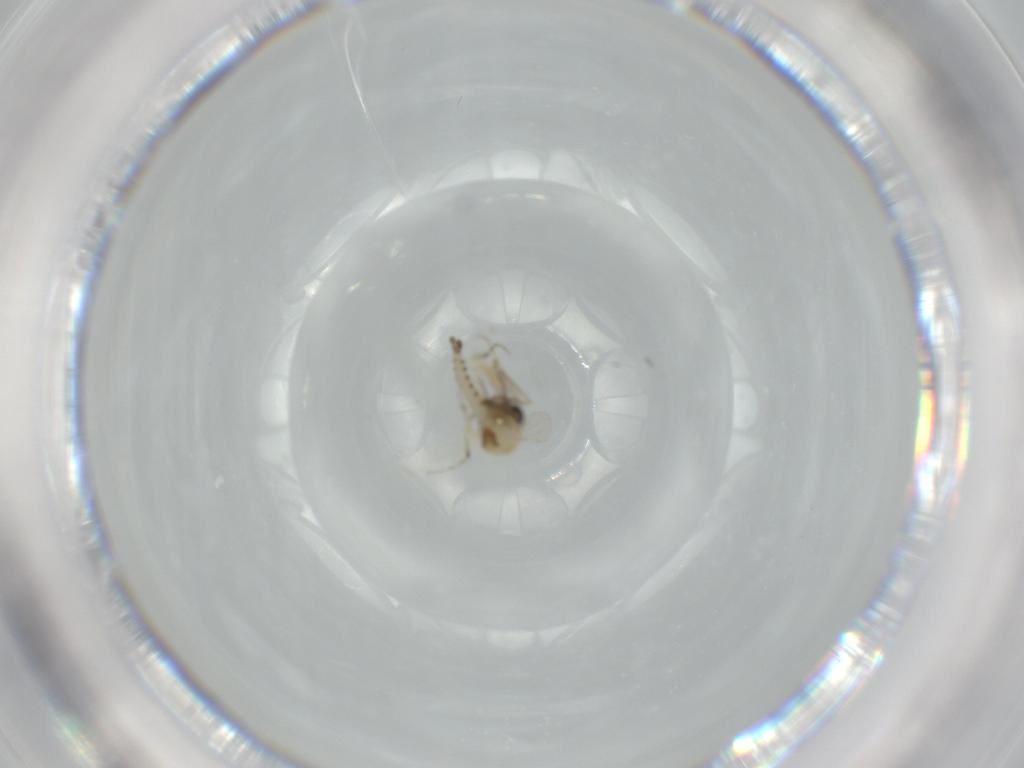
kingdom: Animalia
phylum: Arthropoda
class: Insecta
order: Diptera
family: Ceratopogonidae
